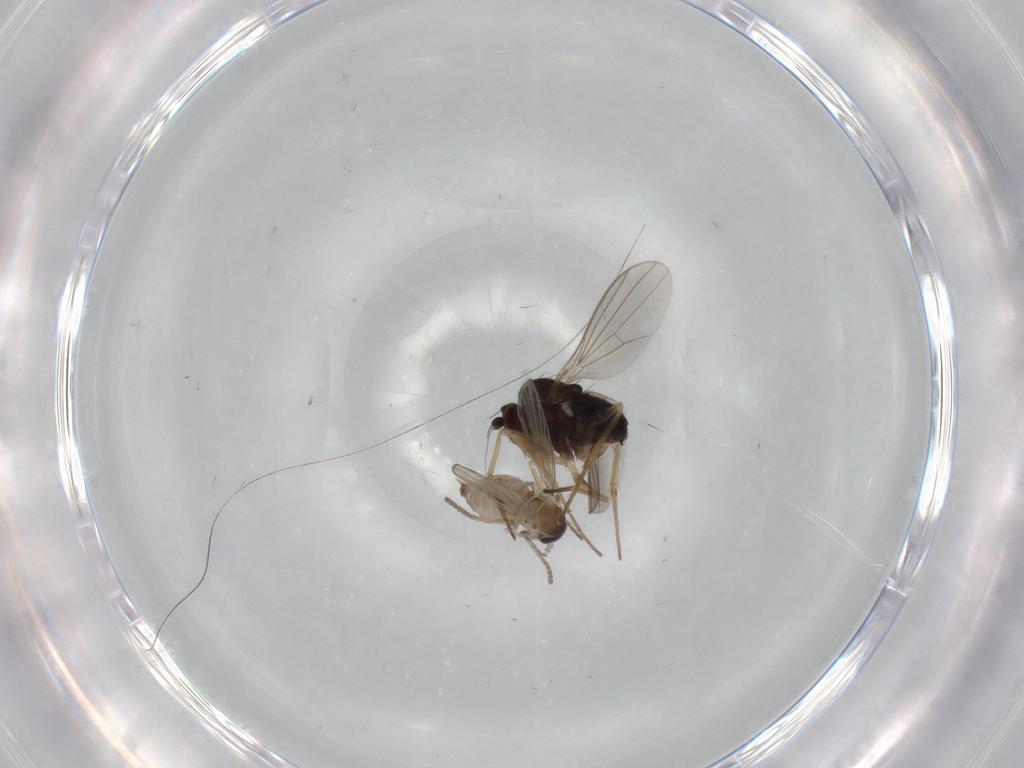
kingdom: Animalia
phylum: Arthropoda
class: Insecta
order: Diptera
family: Dolichopodidae
